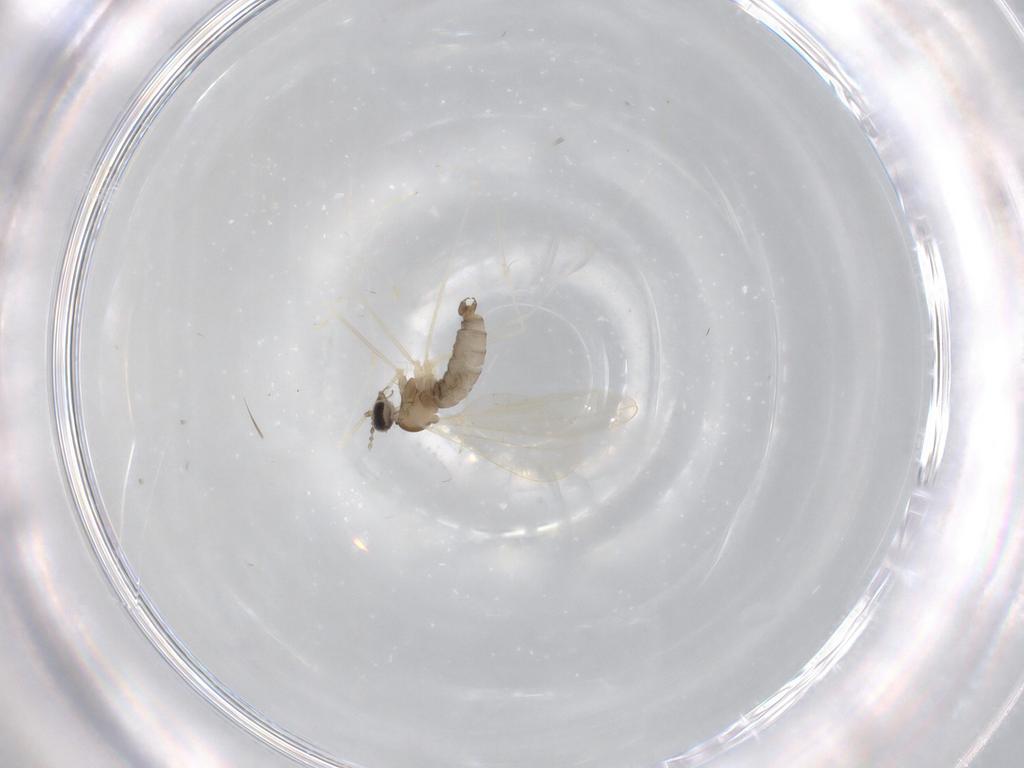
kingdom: Animalia
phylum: Arthropoda
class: Insecta
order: Diptera
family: Cecidomyiidae
